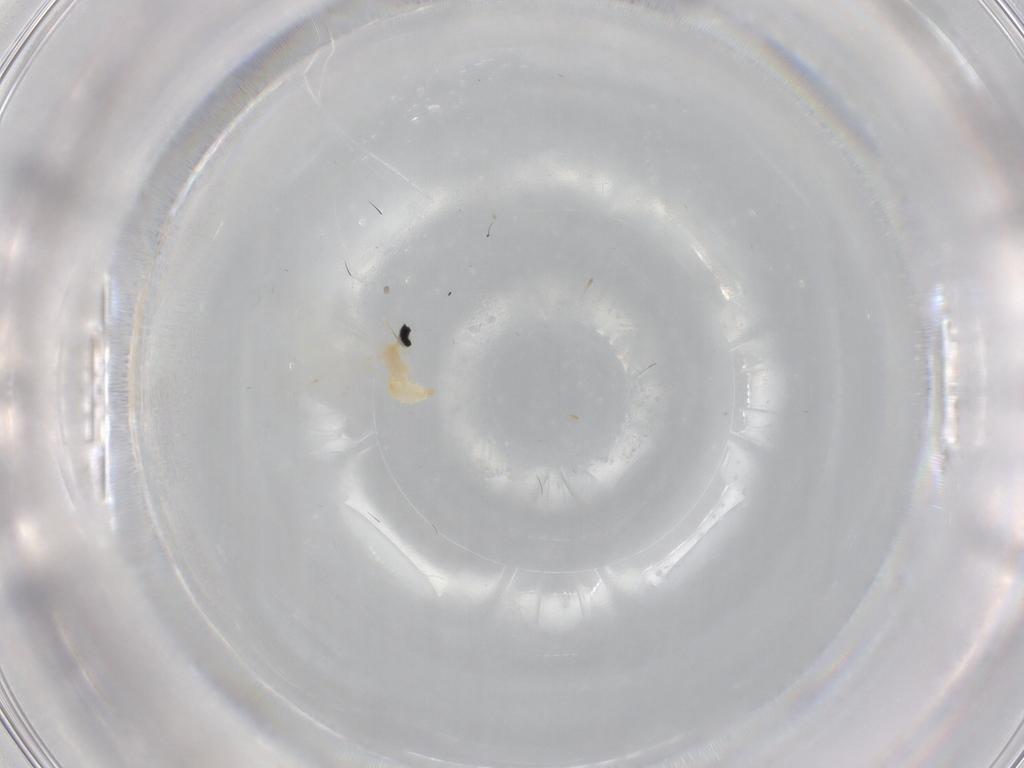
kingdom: Animalia
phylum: Arthropoda
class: Insecta
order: Diptera
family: Cecidomyiidae
